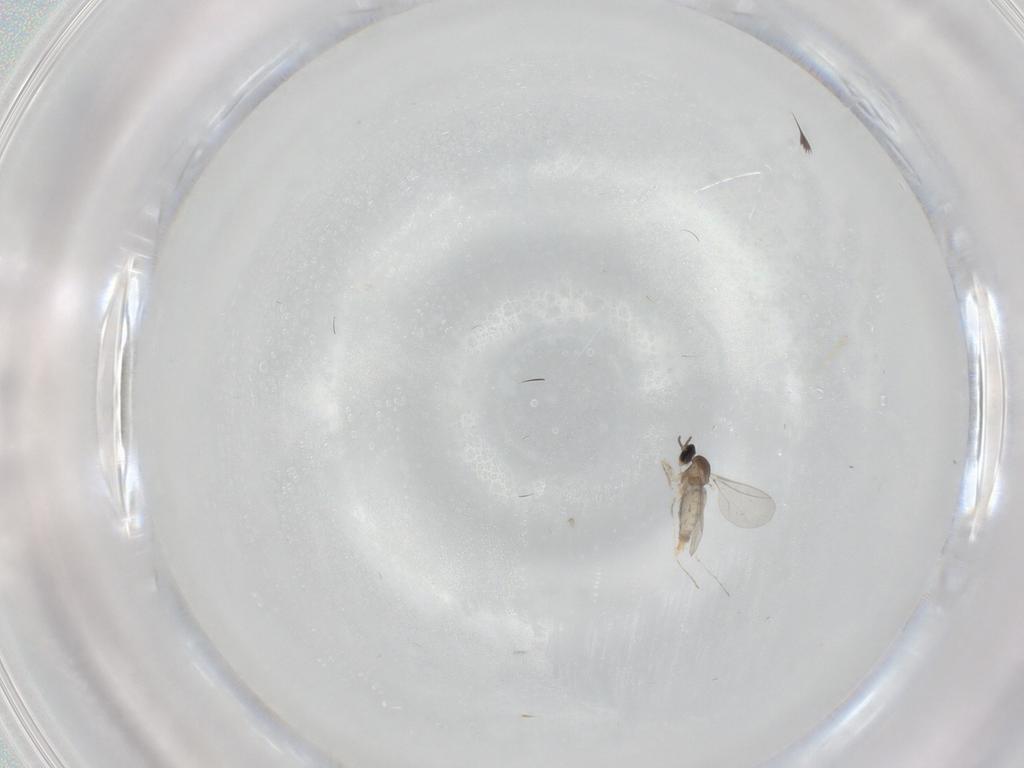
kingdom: Animalia
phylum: Arthropoda
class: Insecta
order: Diptera
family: Cecidomyiidae
